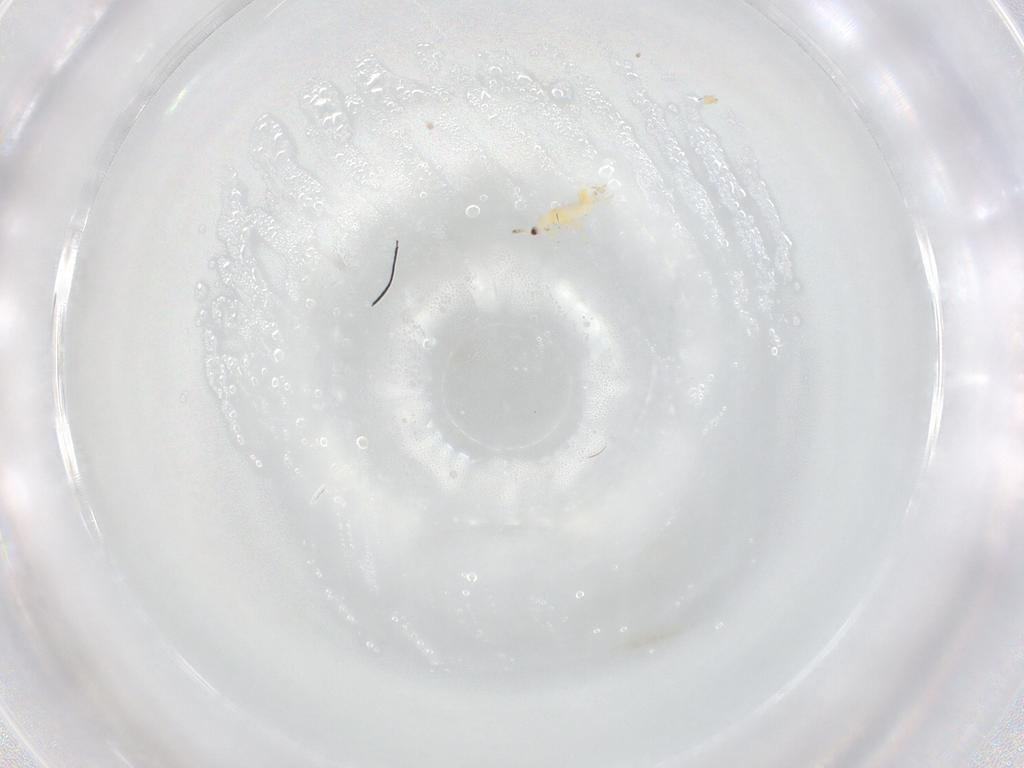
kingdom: Animalia
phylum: Arthropoda
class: Insecta
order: Thysanoptera
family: Thripidae
